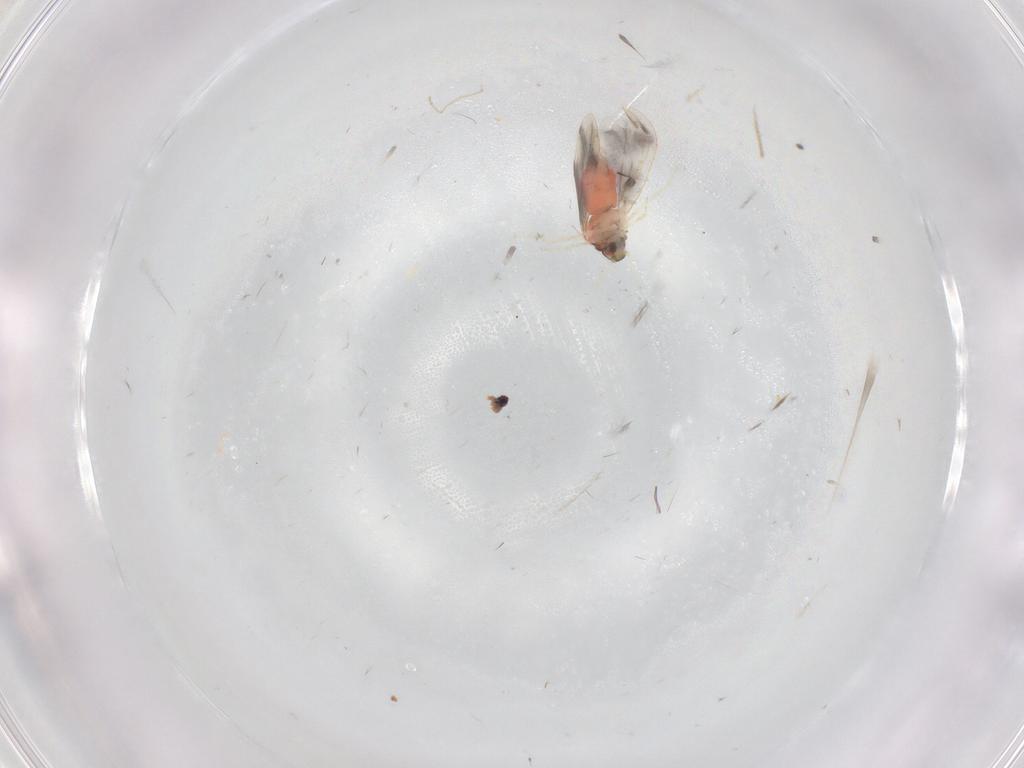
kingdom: Animalia
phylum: Arthropoda
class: Insecta
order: Hemiptera
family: Aleyrodidae
